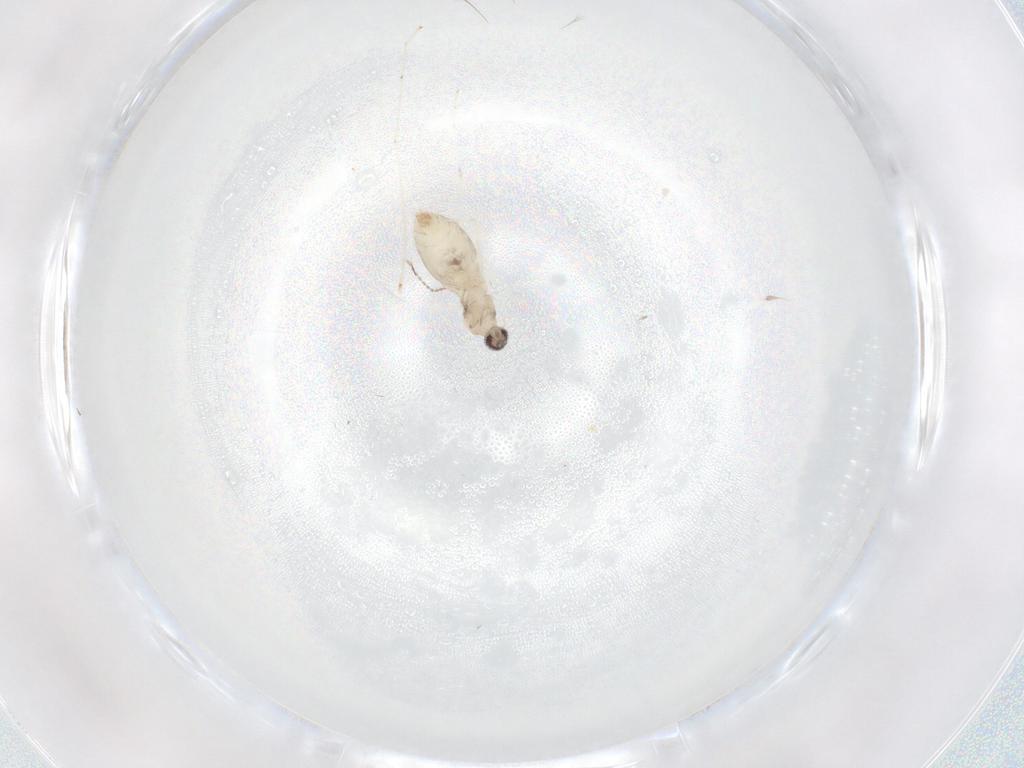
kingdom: Animalia
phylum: Arthropoda
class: Insecta
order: Diptera
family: Cecidomyiidae
